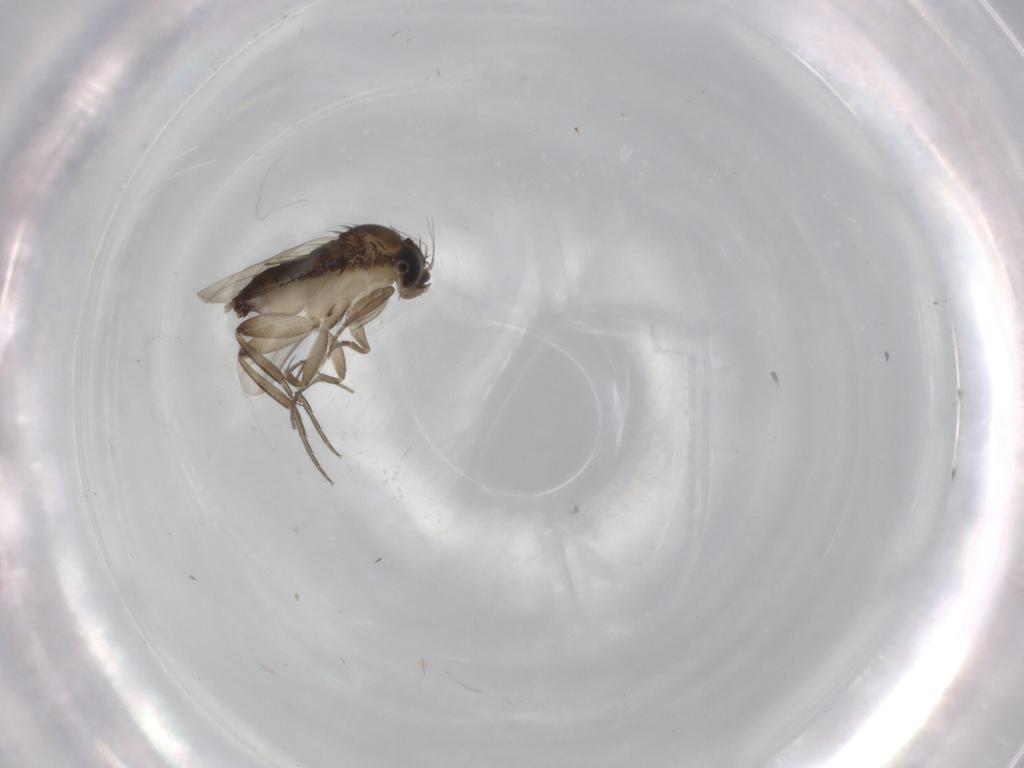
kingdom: Animalia
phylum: Arthropoda
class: Insecta
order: Diptera
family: Phoridae
